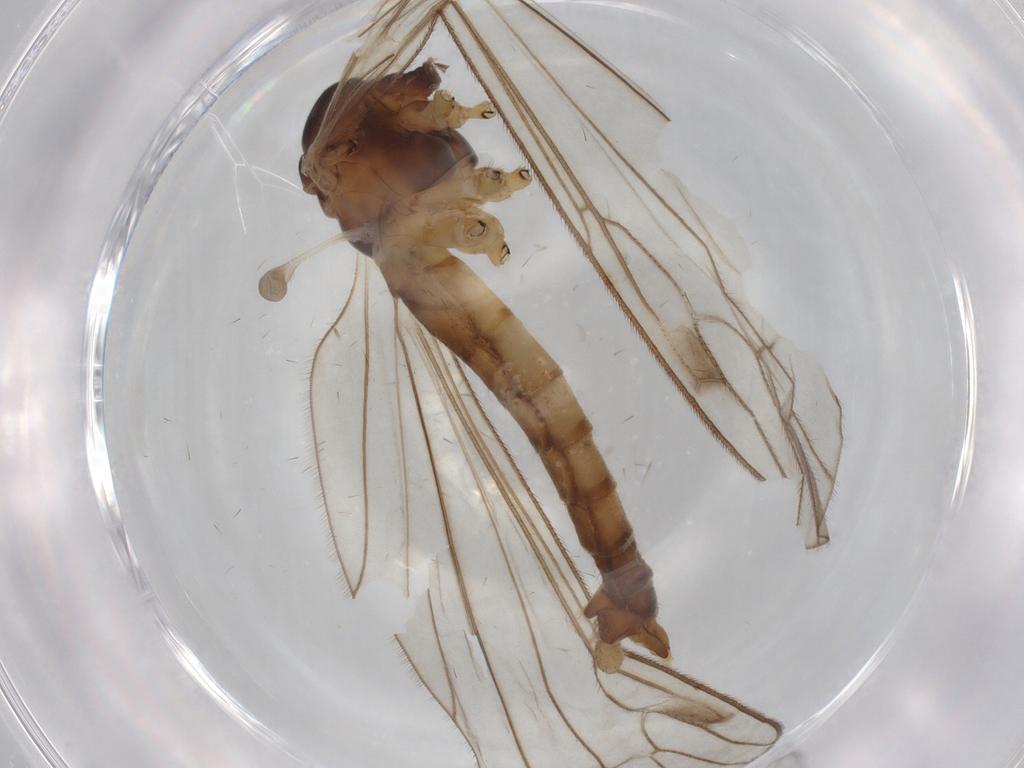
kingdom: Animalia
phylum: Arthropoda
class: Insecta
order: Diptera
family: Limoniidae
